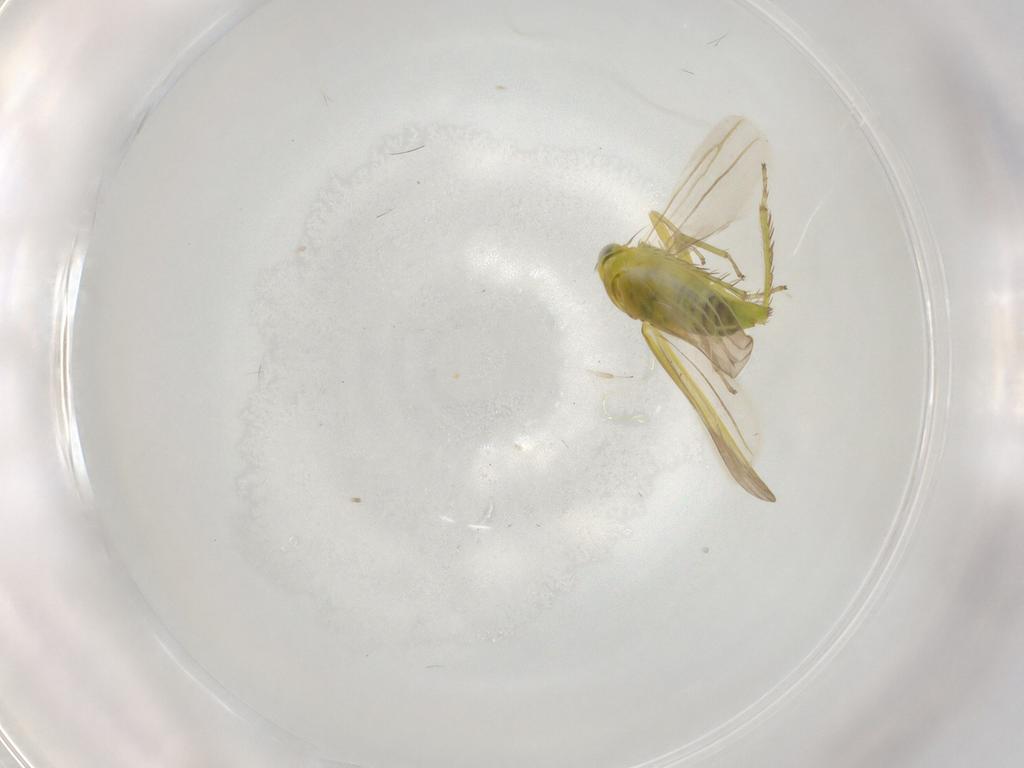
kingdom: Animalia
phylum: Arthropoda
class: Insecta
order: Hemiptera
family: Cicadellidae
